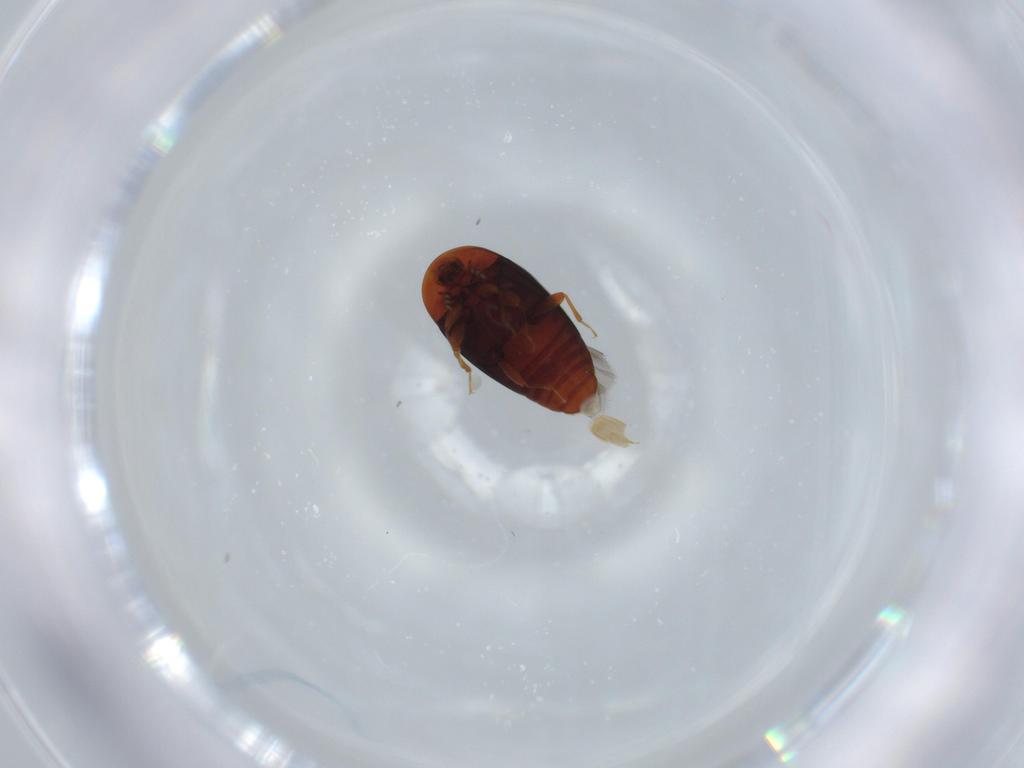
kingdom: Animalia
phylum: Arthropoda
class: Insecta
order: Coleoptera
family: Corylophidae
